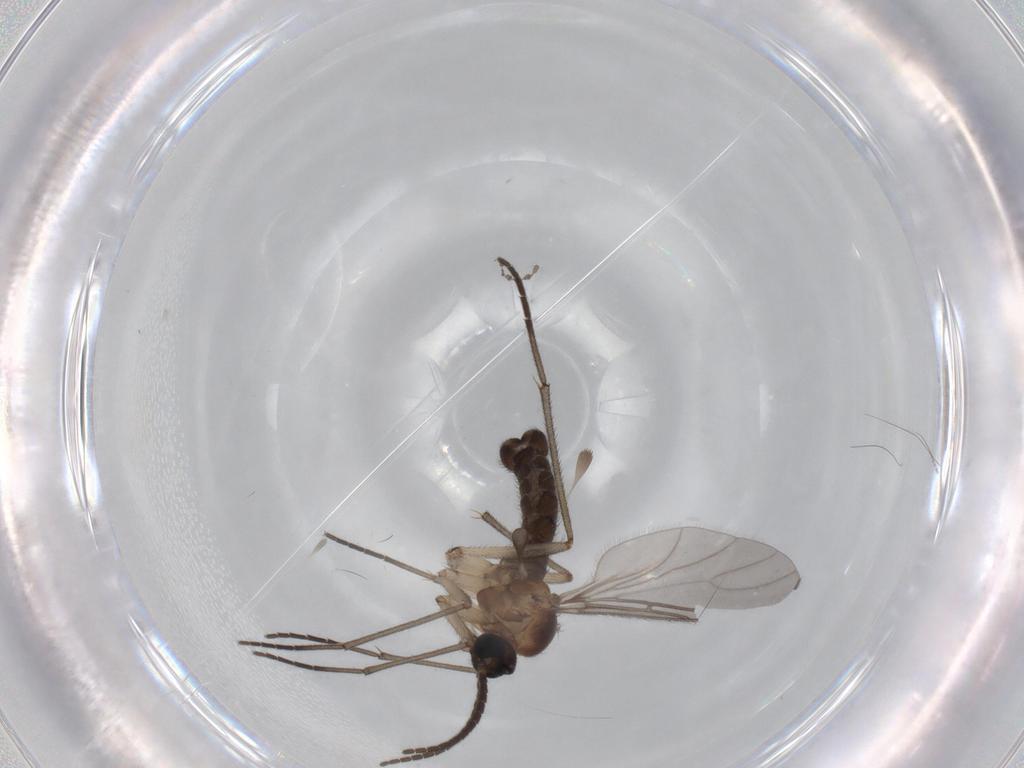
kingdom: Animalia
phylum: Arthropoda
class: Insecta
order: Diptera
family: Sciaridae
